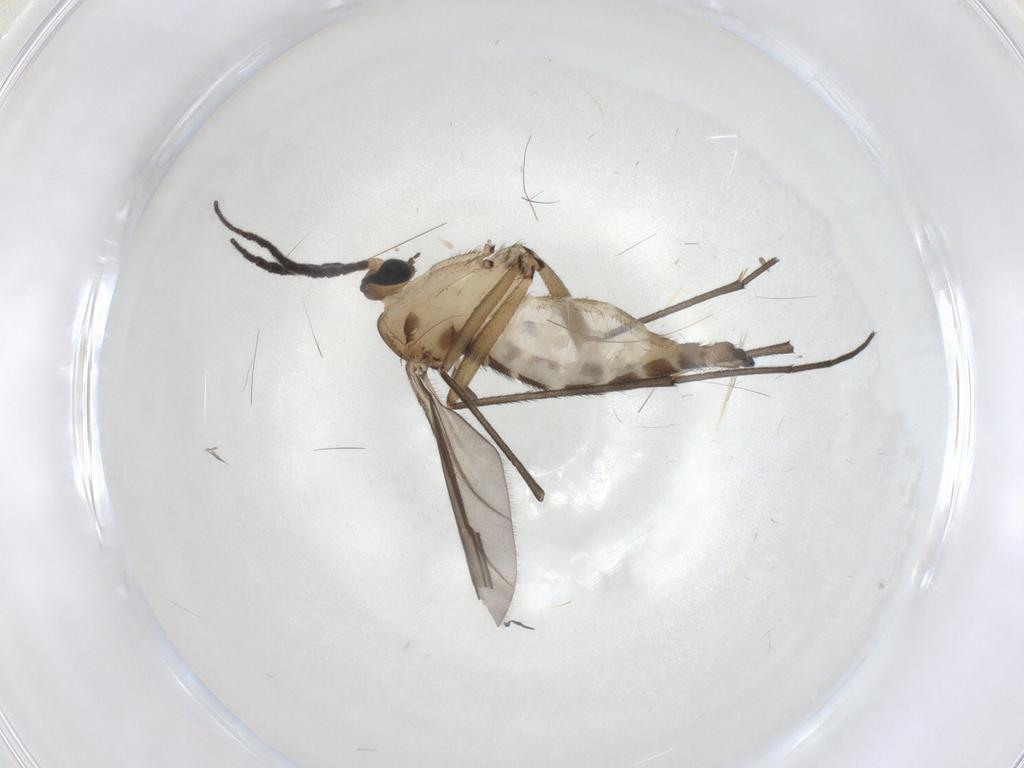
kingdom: Animalia
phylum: Arthropoda
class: Insecta
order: Diptera
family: Sciaridae
